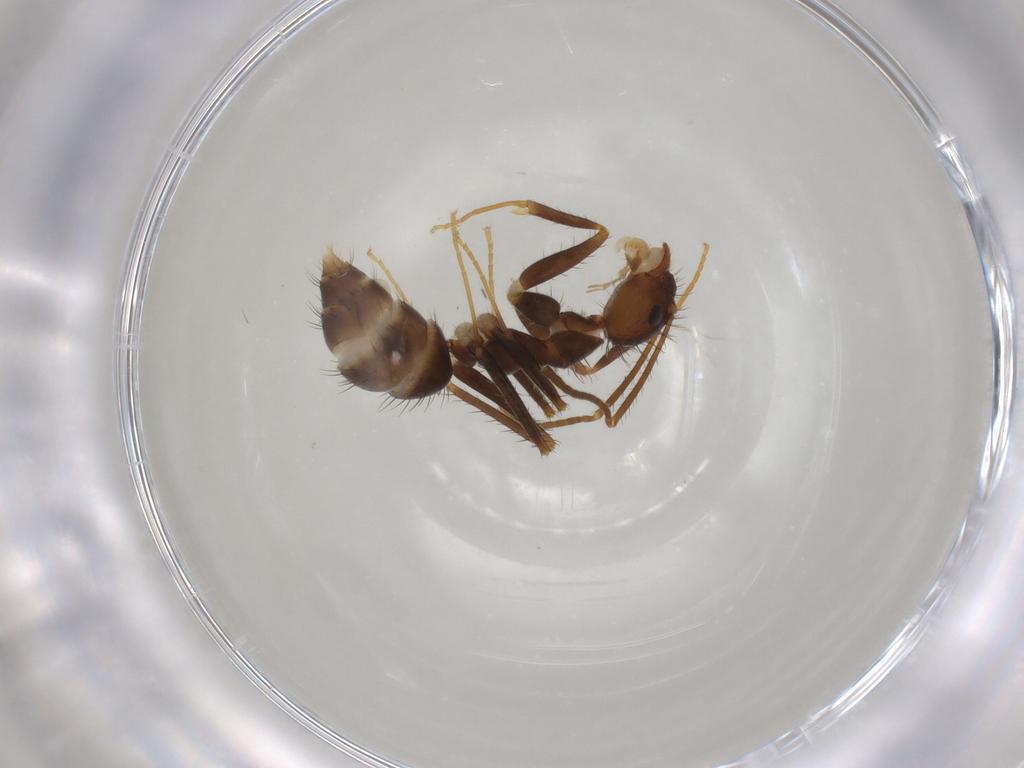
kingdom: Animalia
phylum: Arthropoda
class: Insecta
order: Hymenoptera
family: Formicidae
